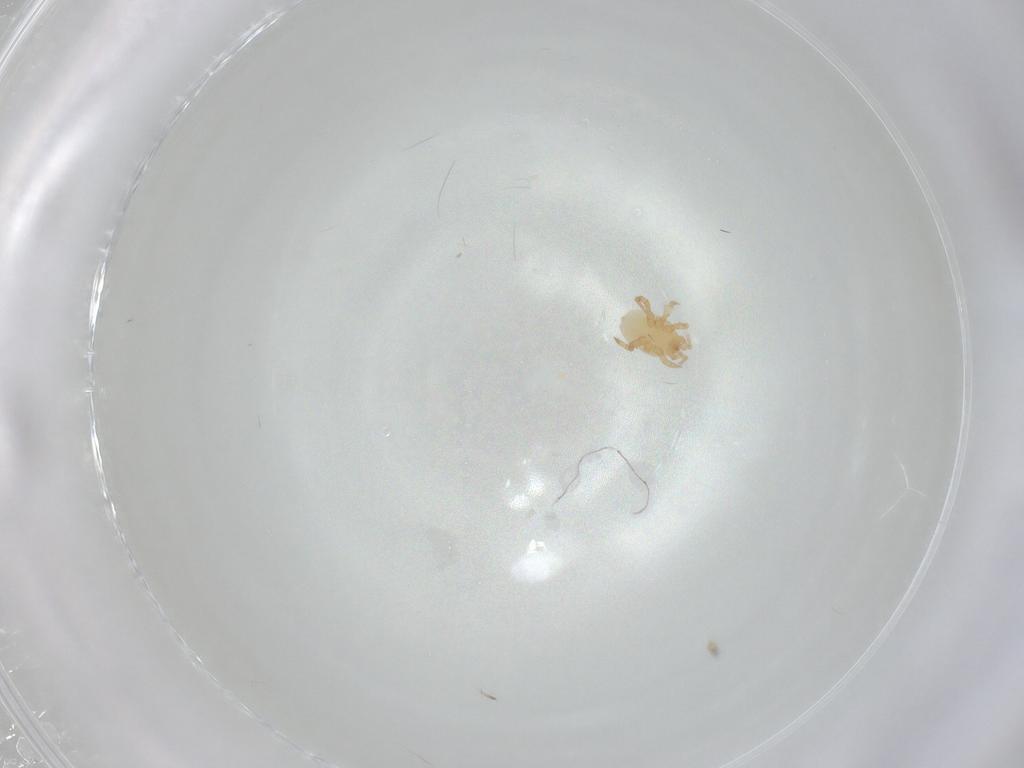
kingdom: Animalia
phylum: Arthropoda
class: Arachnida
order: Mesostigmata
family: Parasitidae
